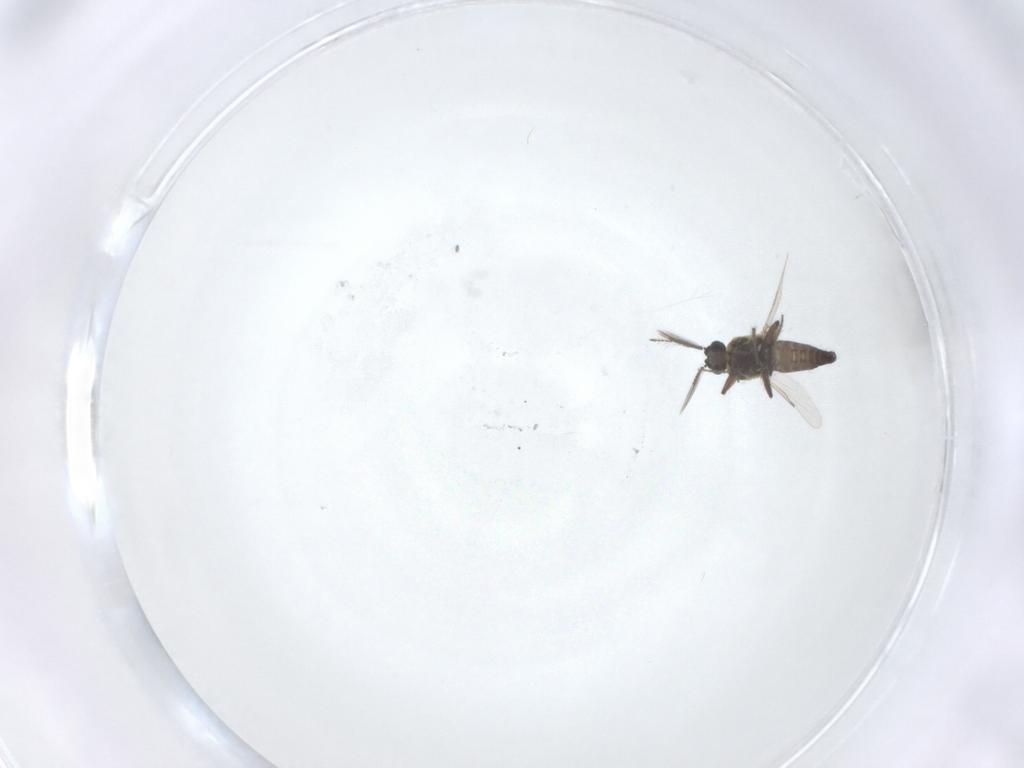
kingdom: Animalia
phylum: Arthropoda
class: Insecta
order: Diptera
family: Ceratopogonidae
